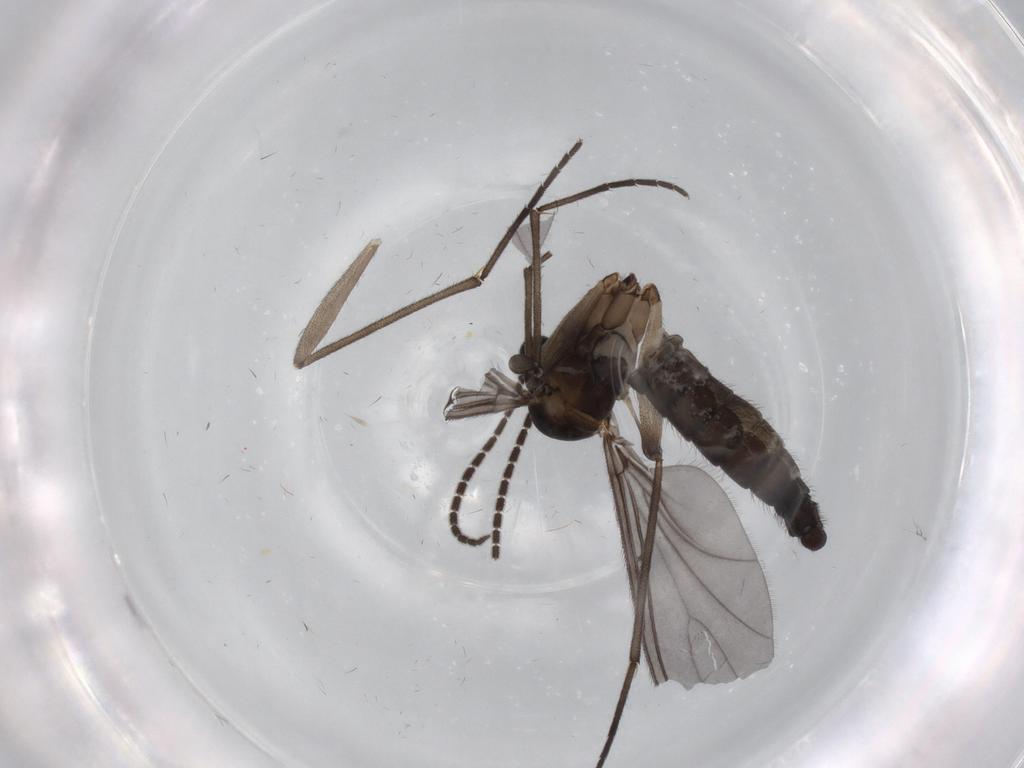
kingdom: Animalia
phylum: Arthropoda
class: Insecta
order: Diptera
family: Sciaridae
